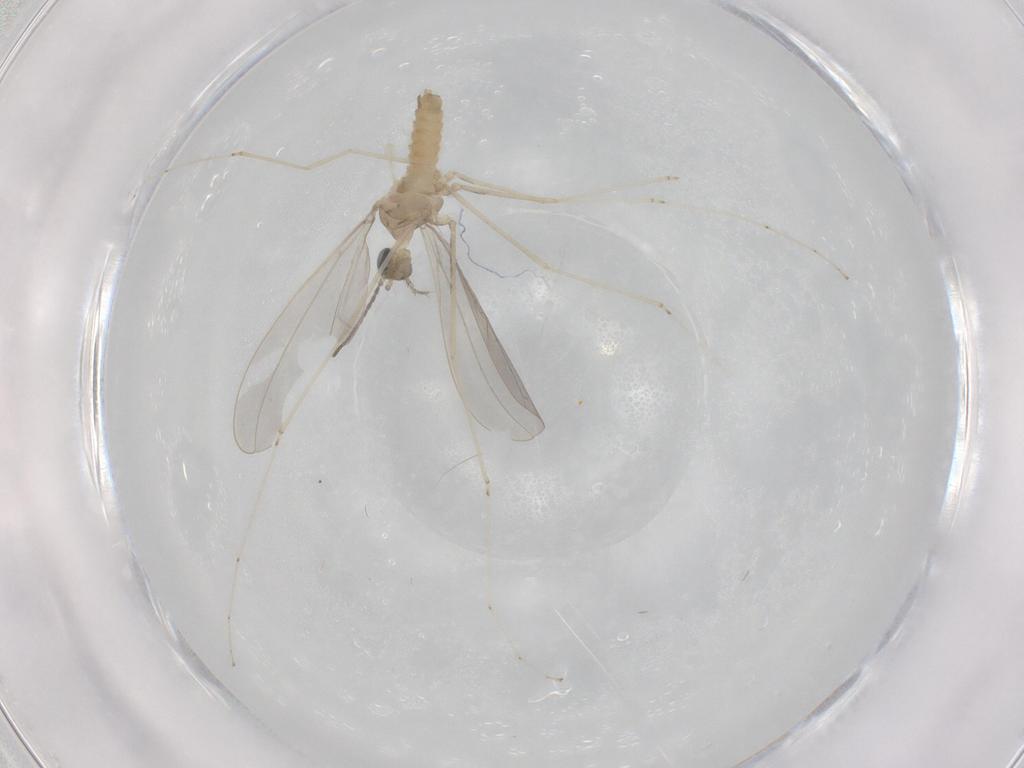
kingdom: Animalia
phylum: Arthropoda
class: Insecta
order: Diptera
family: Cecidomyiidae
